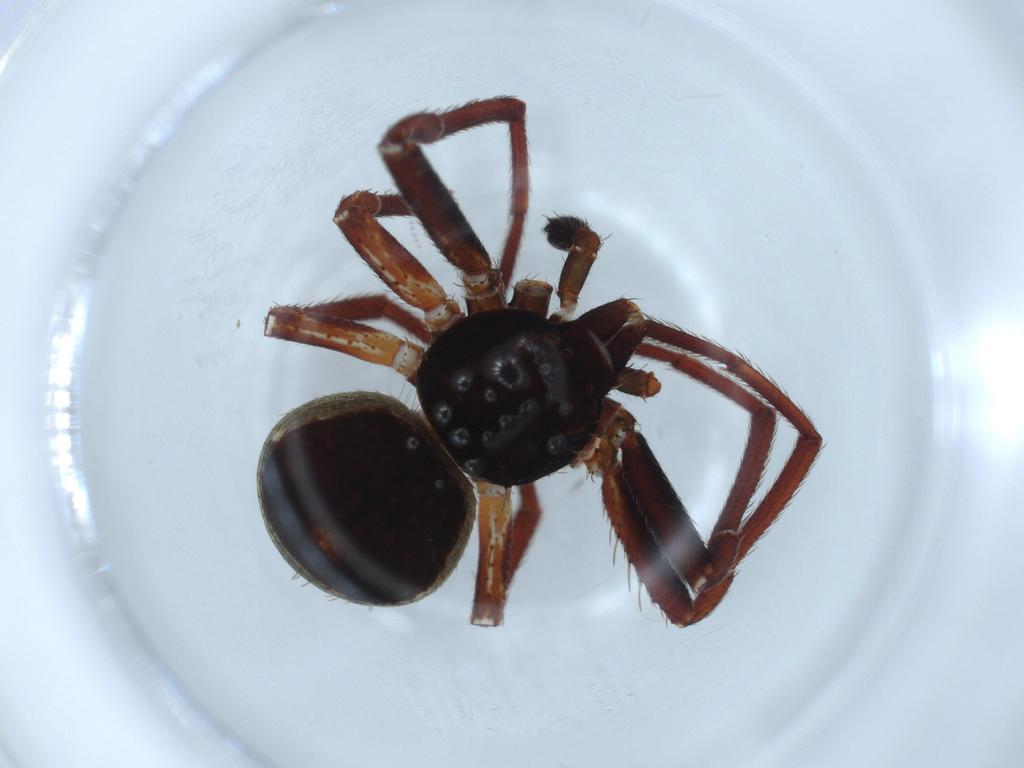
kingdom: Animalia
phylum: Arthropoda
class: Arachnida
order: Araneae
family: Thomisidae
